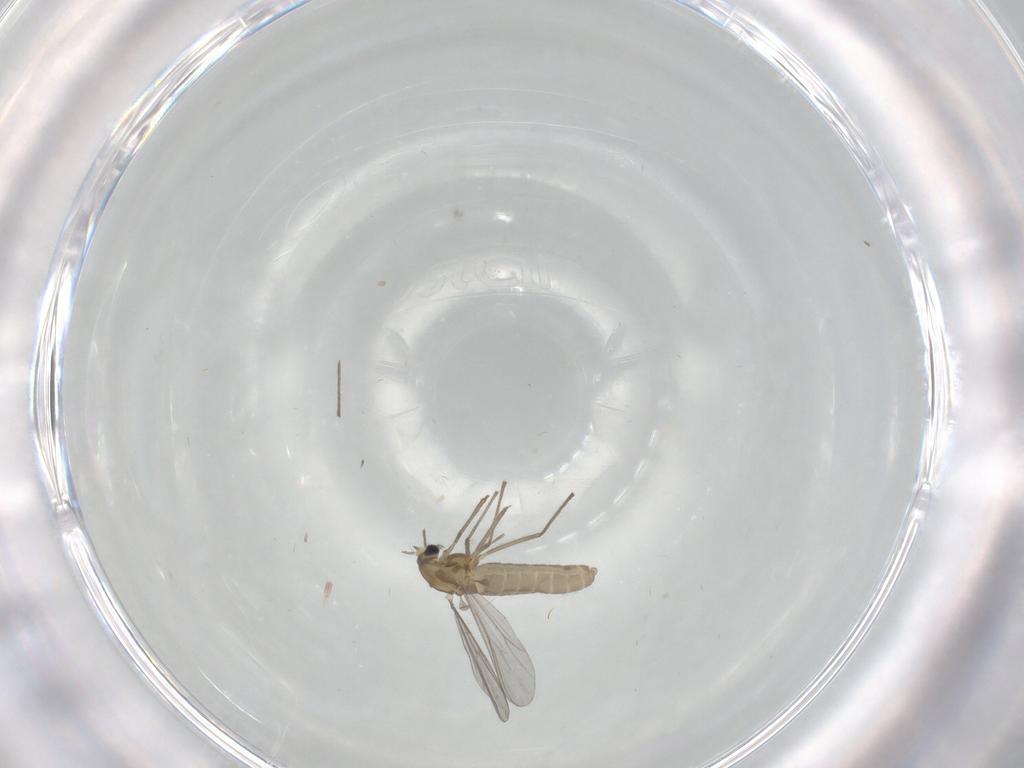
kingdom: Animalia
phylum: Arthropoda
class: Insecta
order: Diptera
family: Chironomidae
